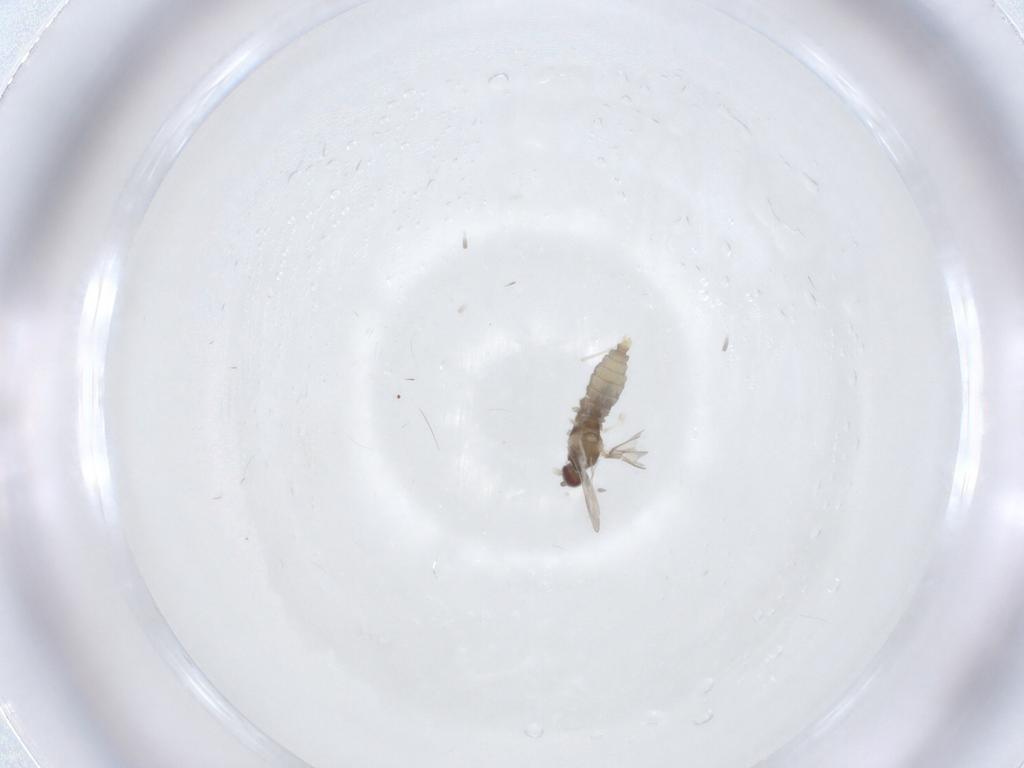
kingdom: Animalia
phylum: Arthropoda
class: Insecta
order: Diptera
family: Cecidomyiidae
